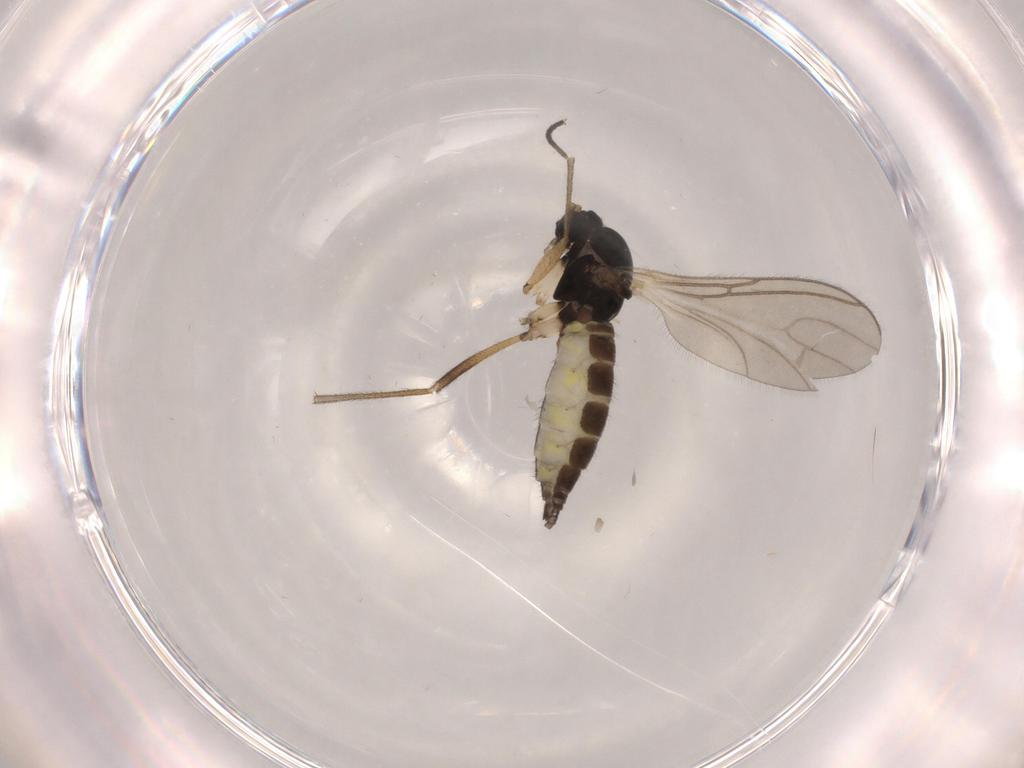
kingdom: Animalia
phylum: Arthropoda
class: Insecta
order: Diptera
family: Sciaridae
